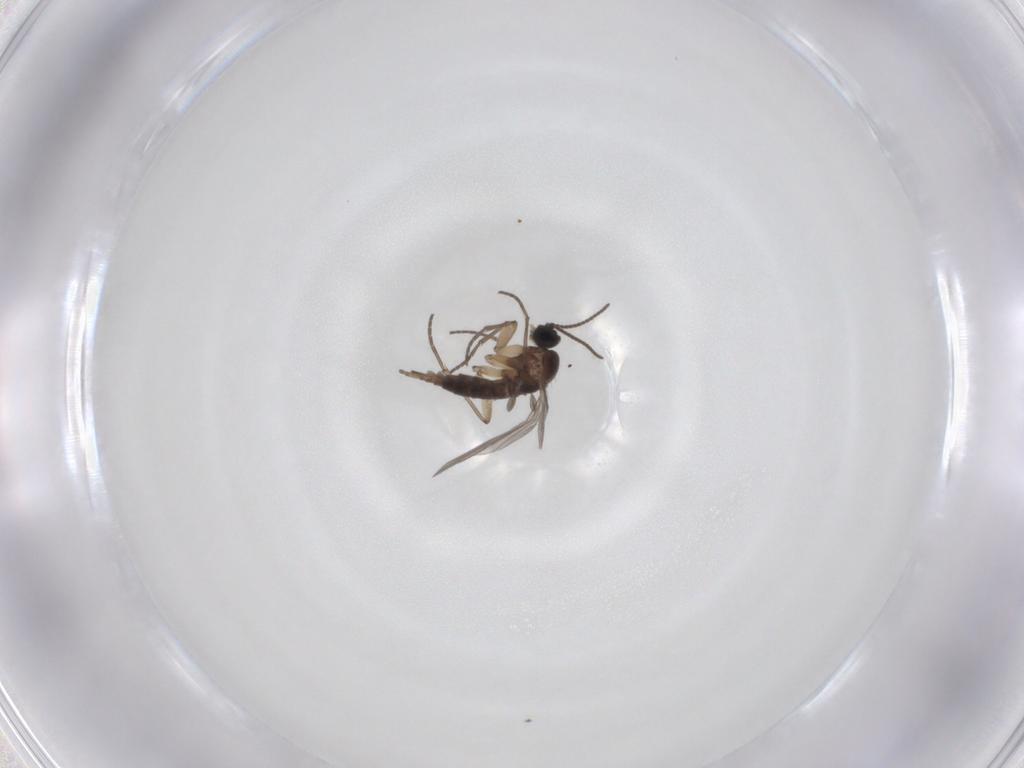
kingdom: Animalia
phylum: Arthropoda
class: Insecta
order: Diptera
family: Sciaridae
